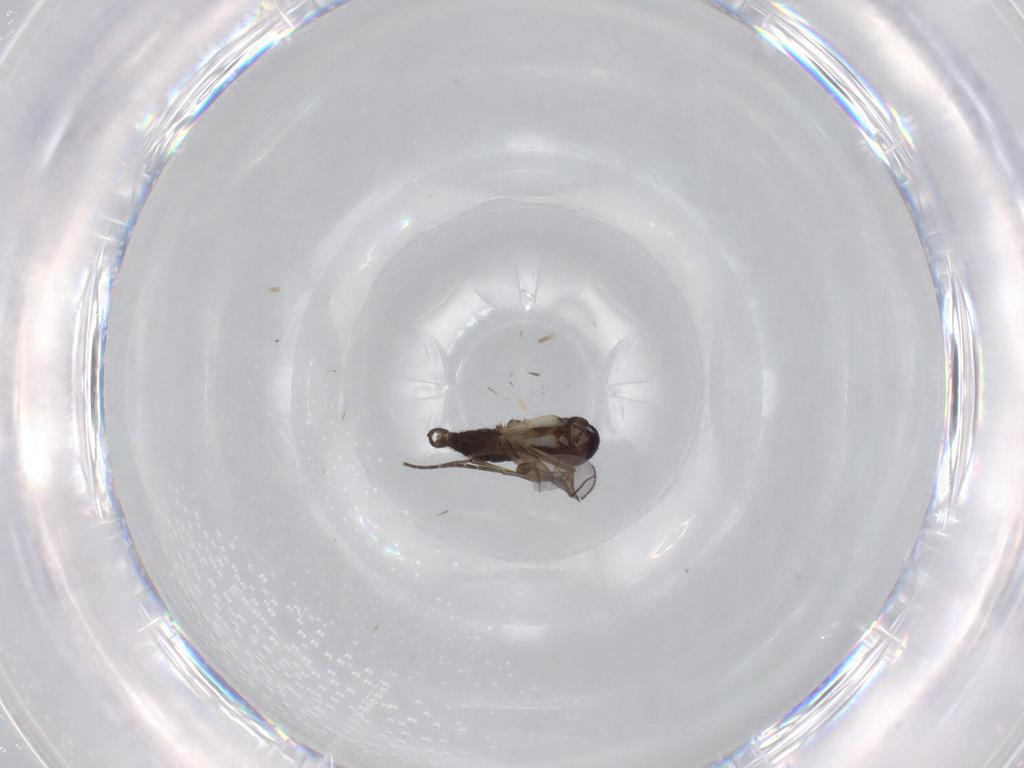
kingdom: Animalia
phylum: Arthropoda
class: Insecta
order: Diptera
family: Sciaridae
